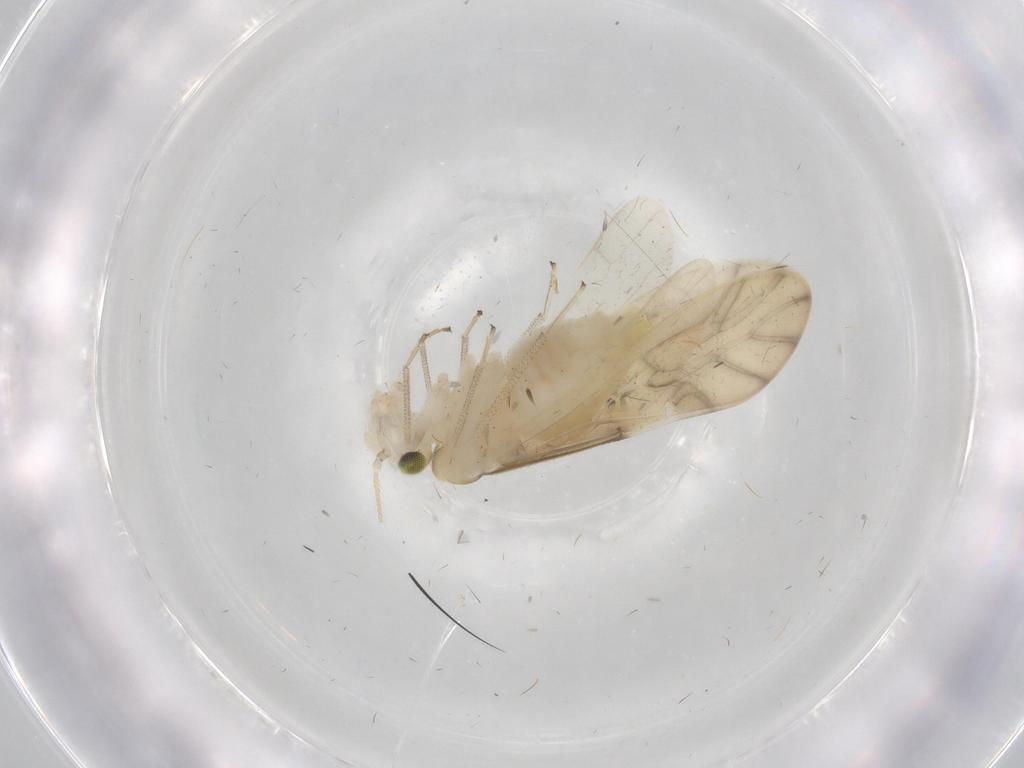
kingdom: Animalia
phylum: Arthropoda
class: Insecta
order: Psocodea
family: Caeciliusidae
